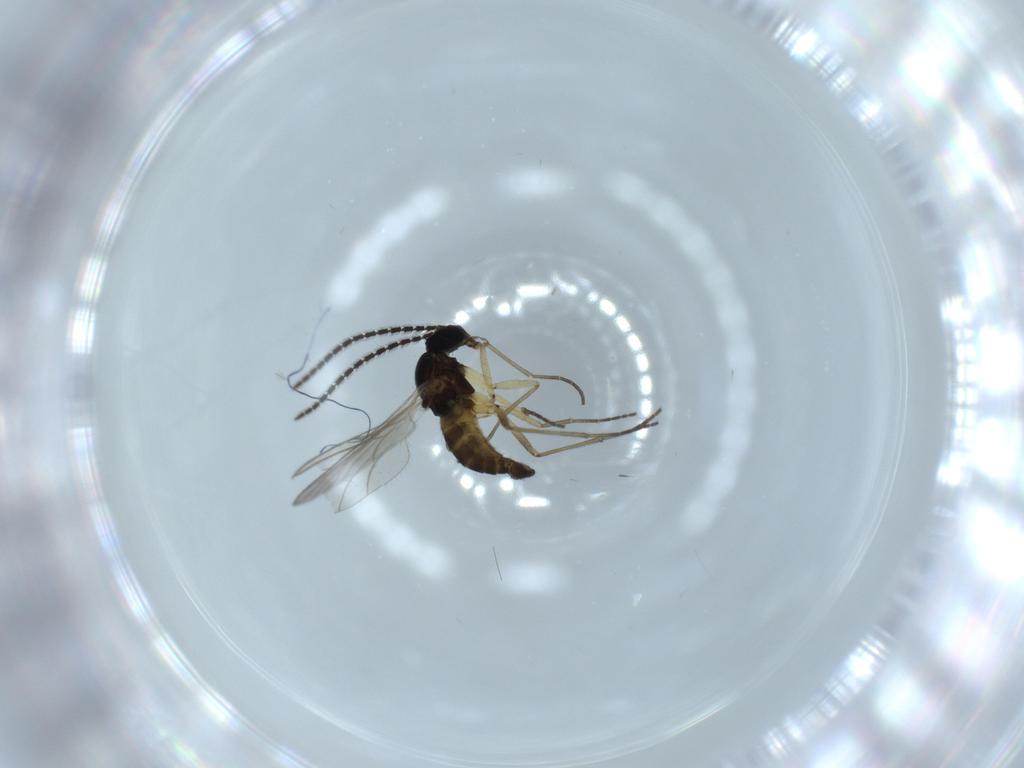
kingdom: Animalia
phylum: Arthropoda
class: Insecta
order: Diptera
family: Sciaridae
